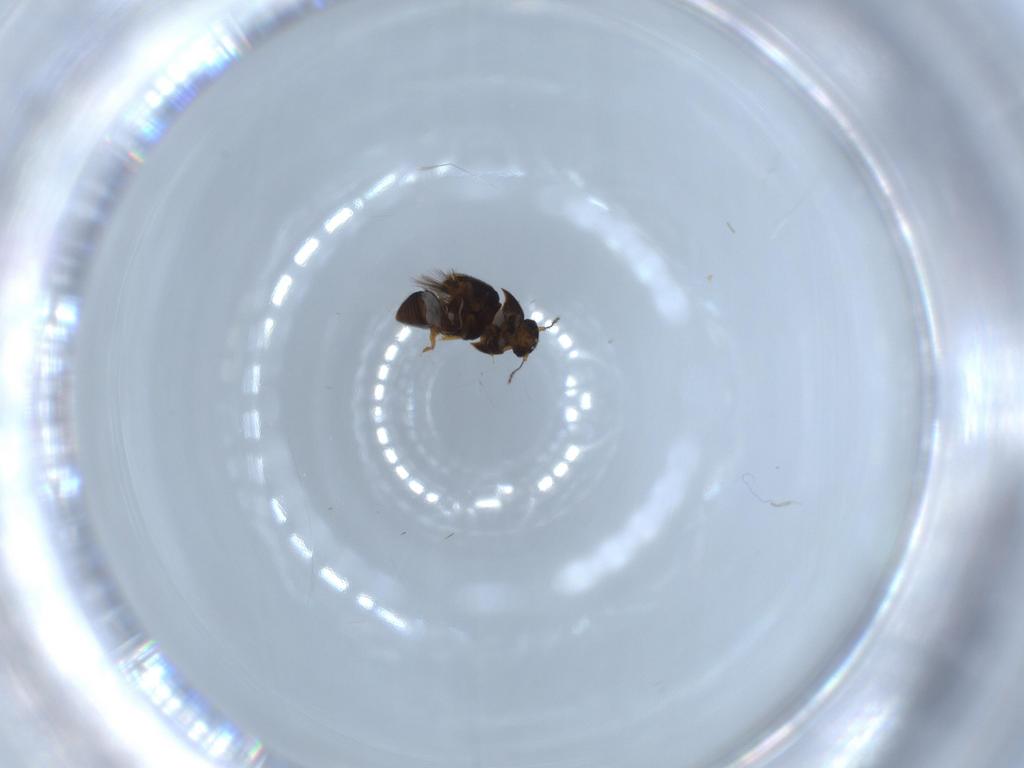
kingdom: Animalia
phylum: Arthropoda
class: Insecta
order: Coleoptera
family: Ptiliidae
